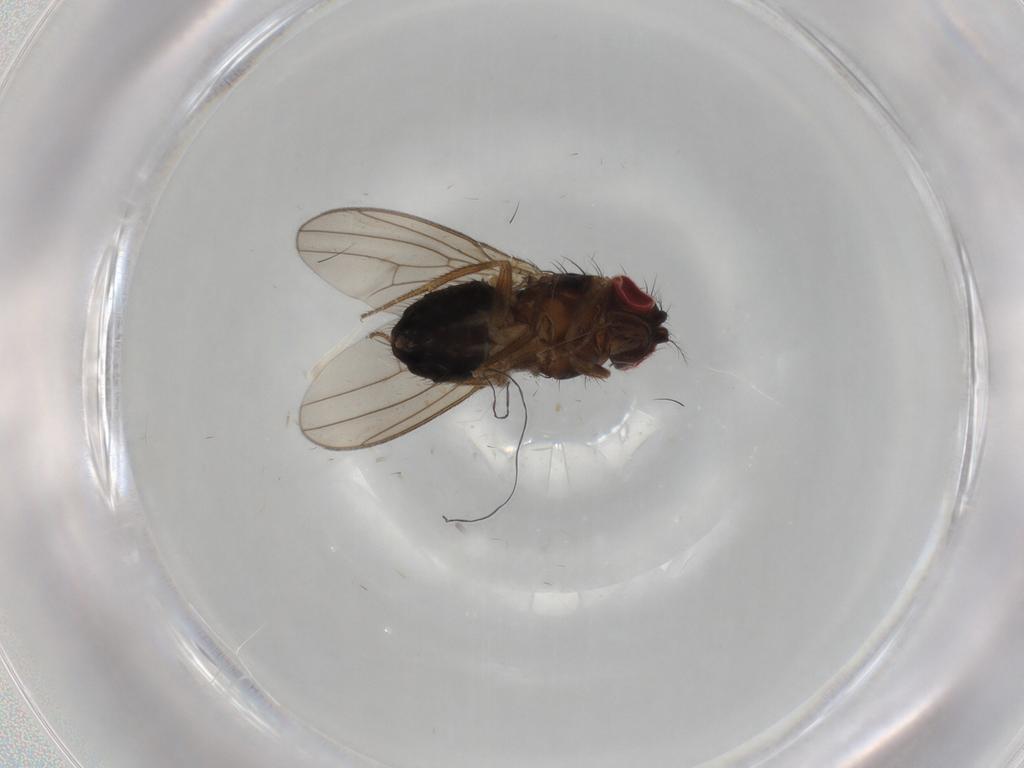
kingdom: Animalia
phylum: Arthropoda
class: Insecta
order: Diptera
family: Drosophilidae
